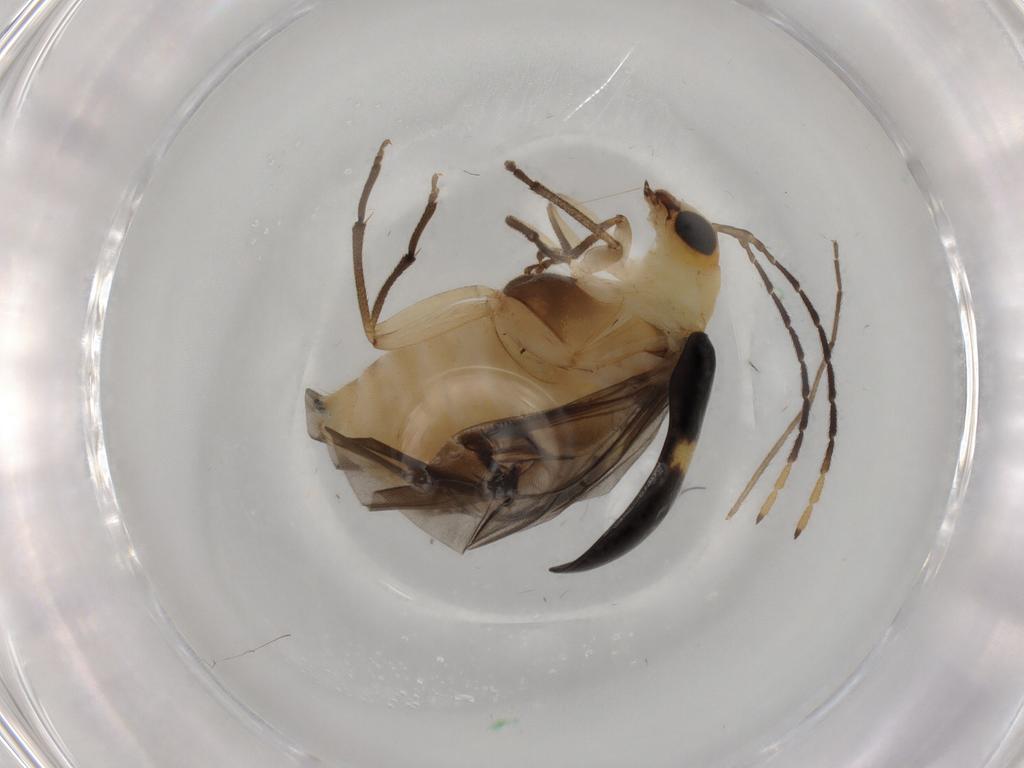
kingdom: Animalia
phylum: Arthropoda
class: Insecta
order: Coleoptera
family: Chrysomelidae
